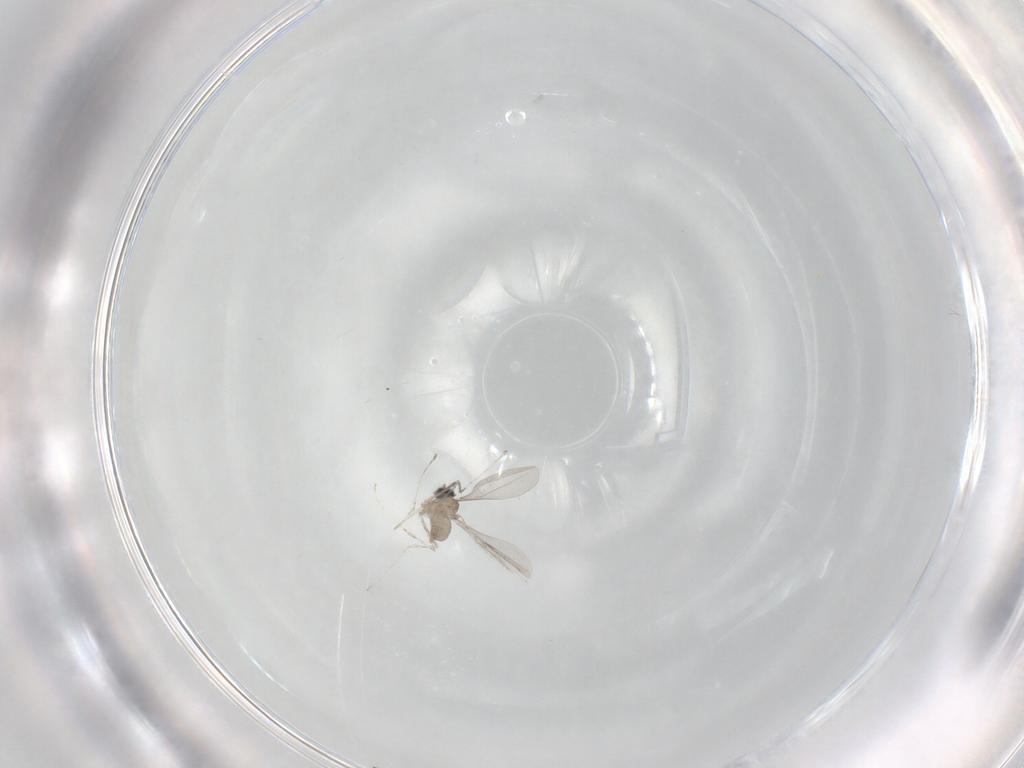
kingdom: Animalia
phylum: Arthropoda
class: Insecta
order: Diptera
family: Cecidomyiidae
